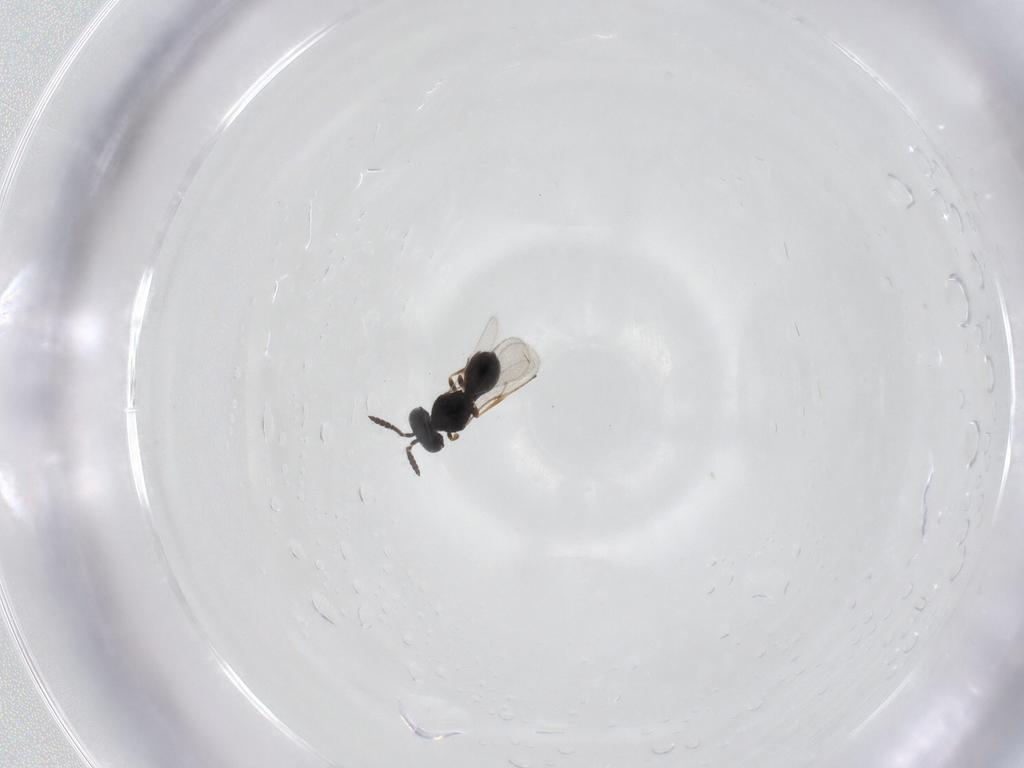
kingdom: Animalia
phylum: Arthropoda
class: Insecta
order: Hymenoptera
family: Scelionidae
